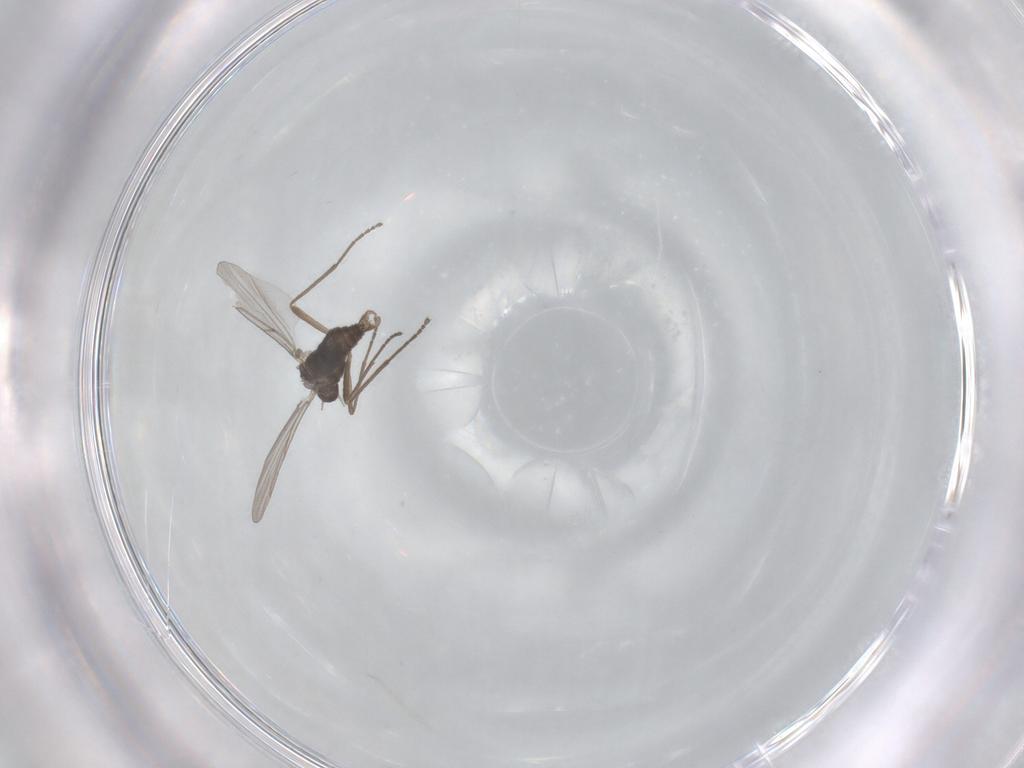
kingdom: Animalia
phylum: Arthropoda
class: Insecta
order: Diptera
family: Cecidomyiidae
